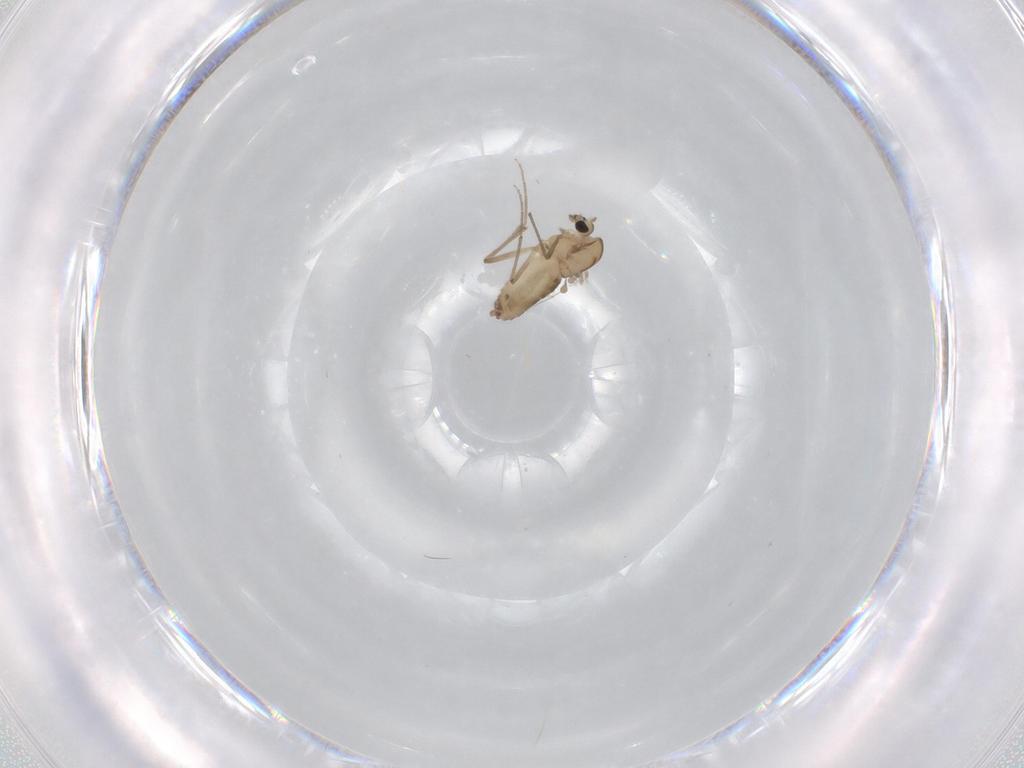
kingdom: Animalia
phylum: Arthropoda
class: Insecta
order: Diptera
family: Chironomidae
